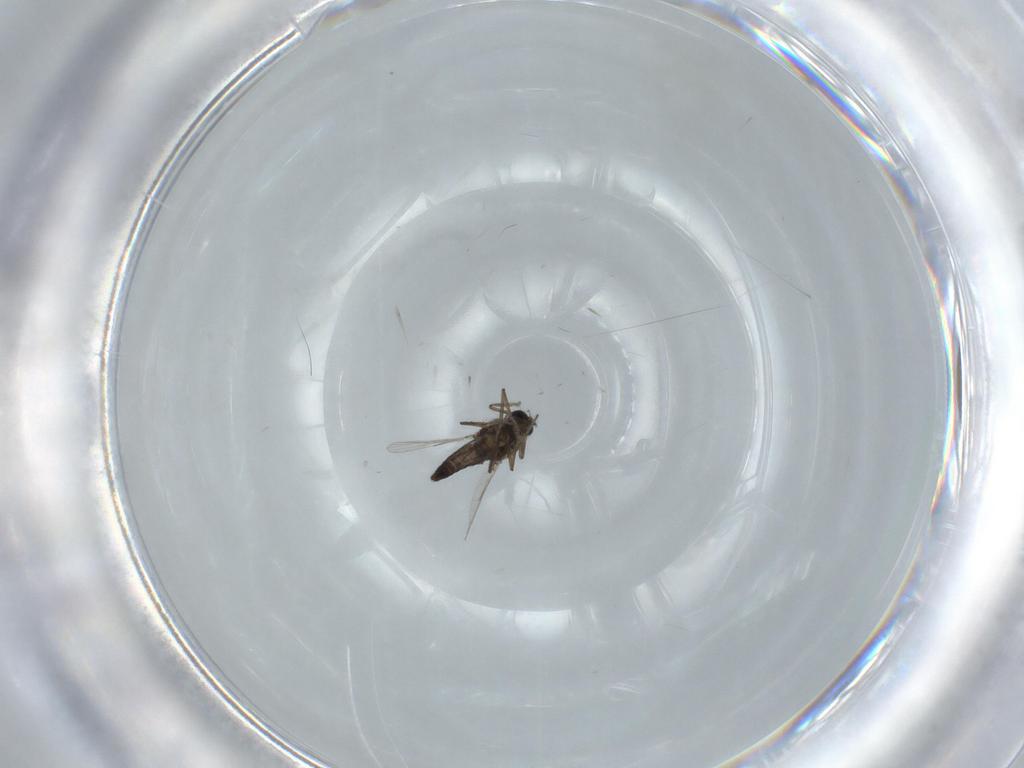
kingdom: Animalia
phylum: Arthropoda
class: Insecta
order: Diptera
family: Ceratopogonidae
